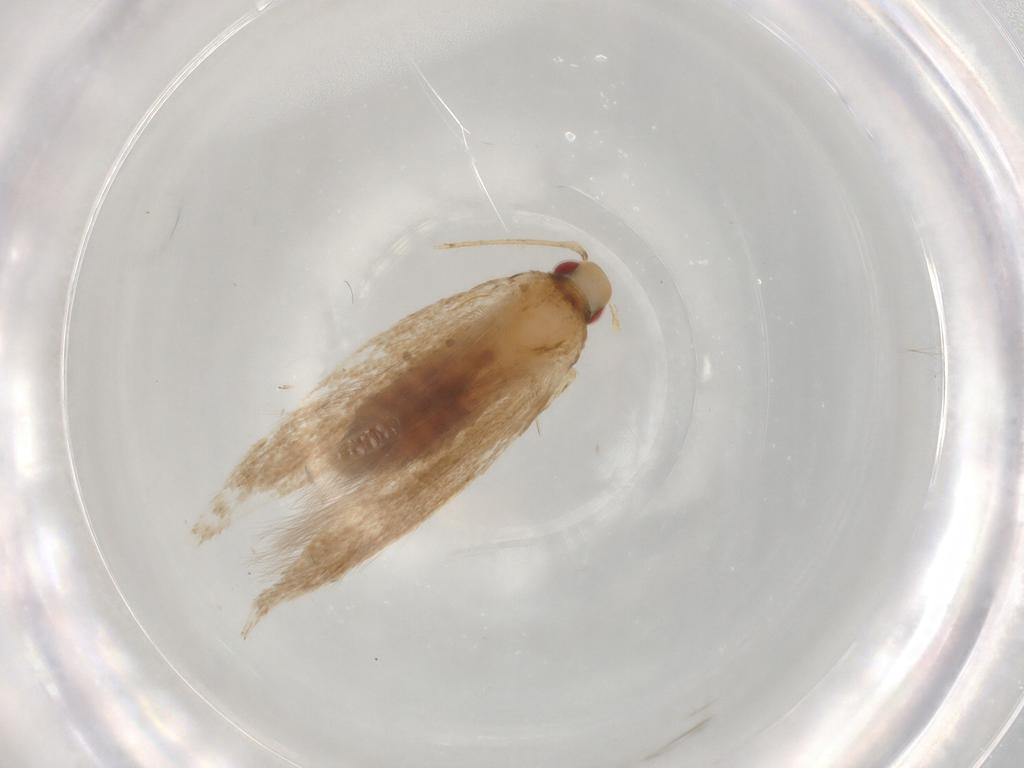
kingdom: Animalia
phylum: Arthropoda
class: Insecta
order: Lepidoptera
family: Cosmopterigidae
